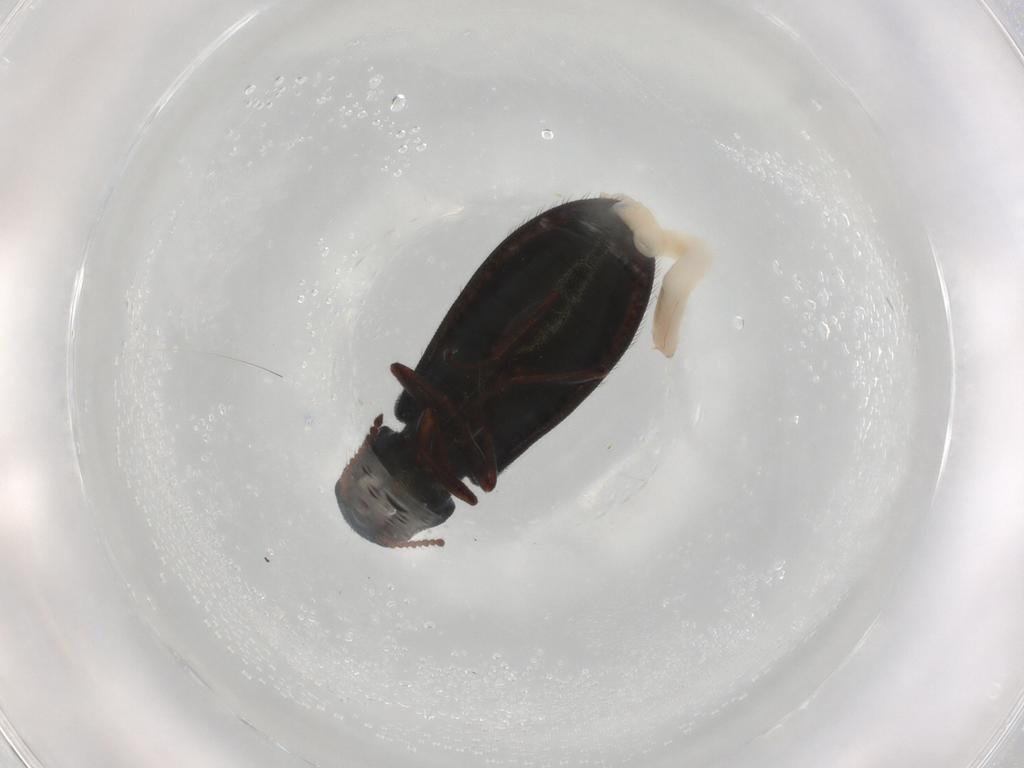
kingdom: Animalia
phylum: Arthropoda
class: Insecta
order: Coleoptera
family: Melyridae
